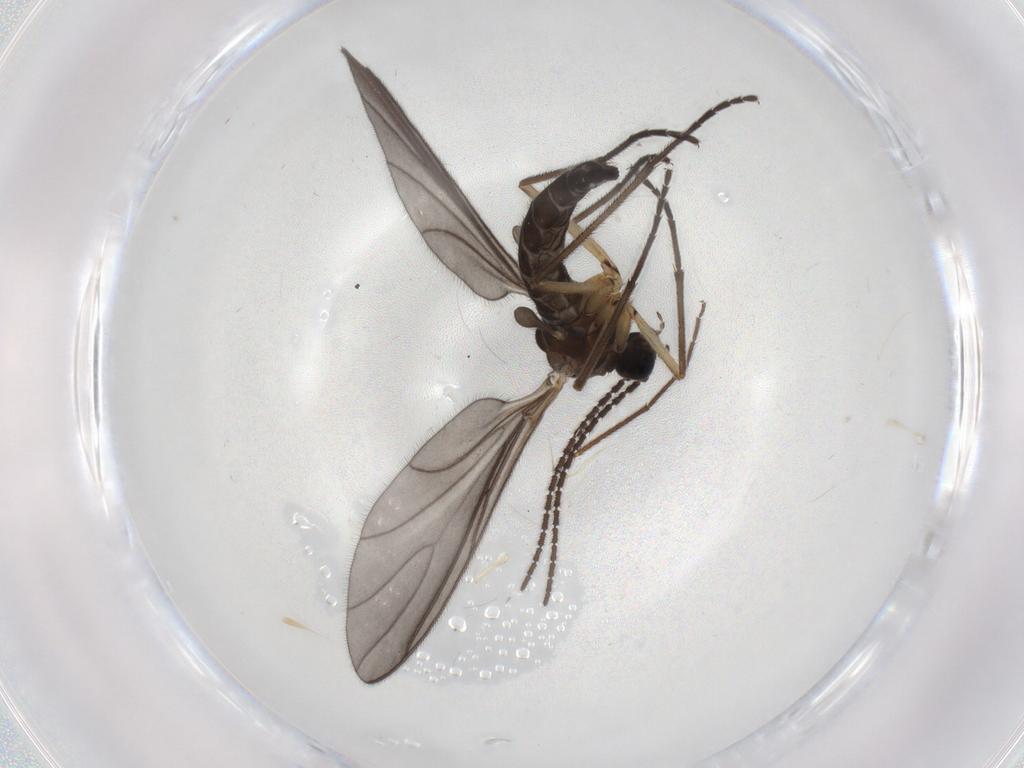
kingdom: Animalia
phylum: Arthropoda
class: Insecta
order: Diptera
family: Sciaridae
